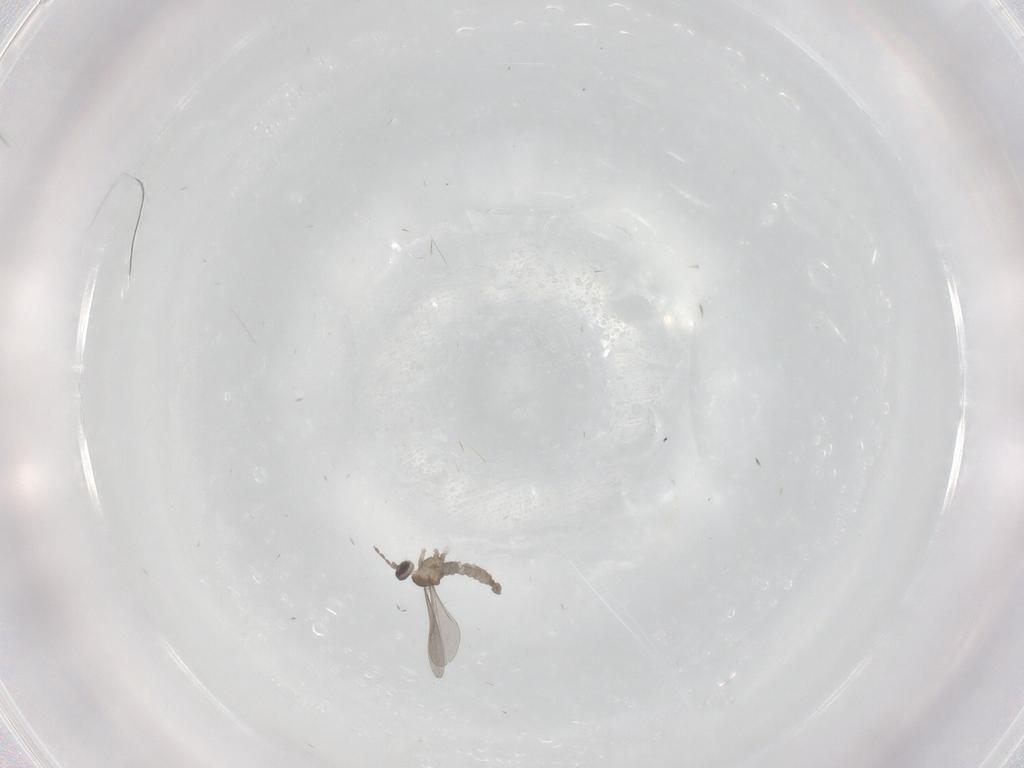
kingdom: Animalia
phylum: Arthropoda
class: Insecta
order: Diptera
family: Cecidomyiidae
